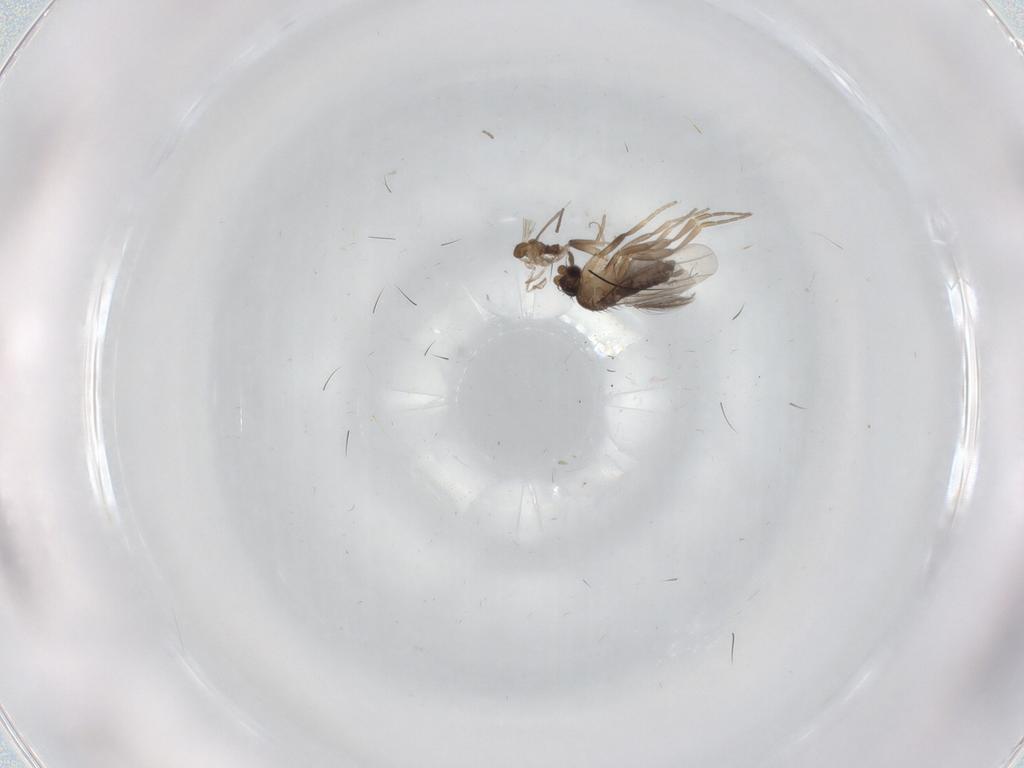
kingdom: Animalia
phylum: Arthropoda
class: Insecta
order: Diptera
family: Cecidomyiidae
